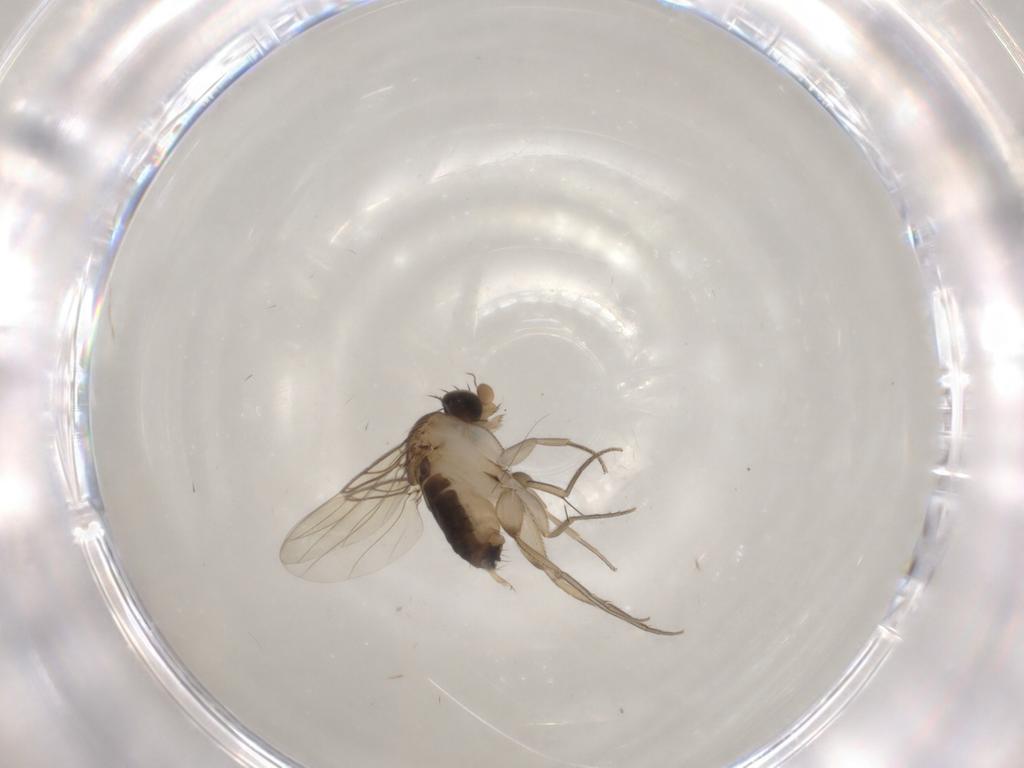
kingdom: Animalia
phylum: Arthropoda
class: Insecta
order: Diptera
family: Phoridae
